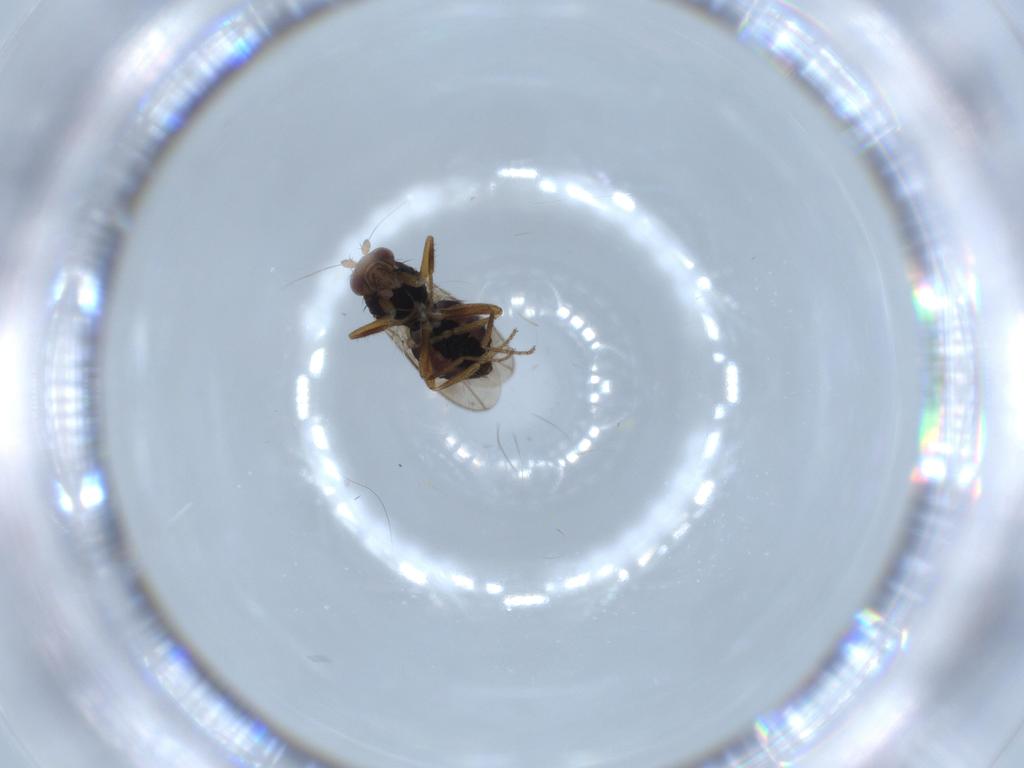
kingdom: Animalia
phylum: Arthropoda
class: Insecta
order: Diptera
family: Sphaeroceridae
